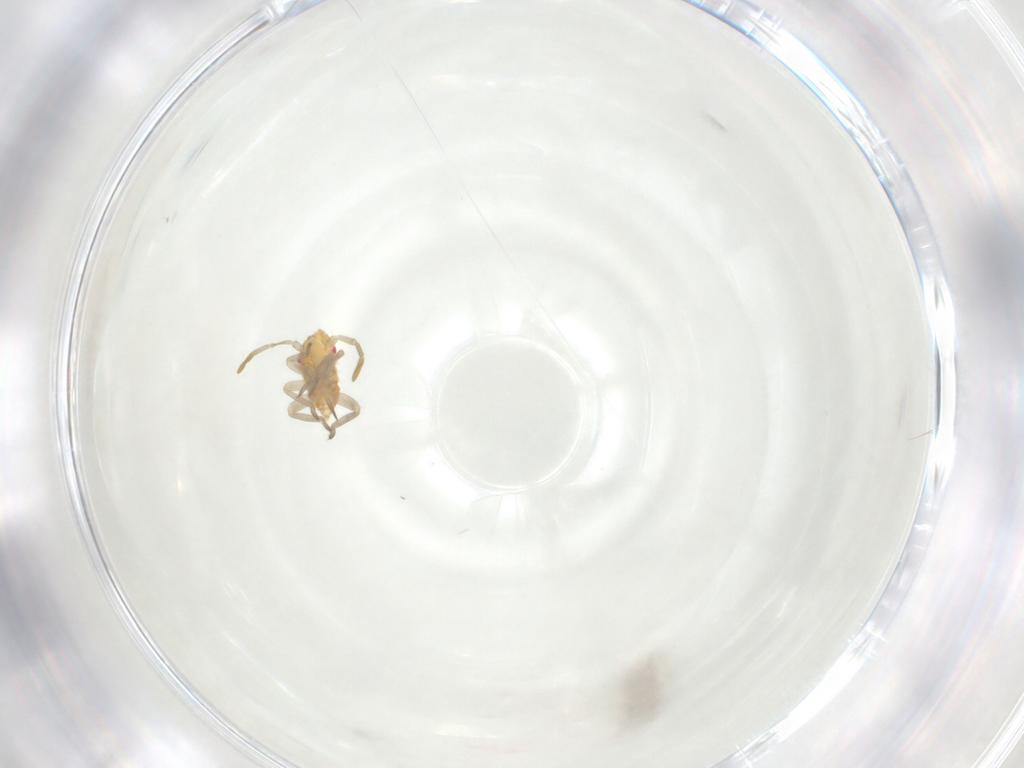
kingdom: Animalia
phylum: Arthropoda
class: Insecta
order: Hemiptera
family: Miridae
